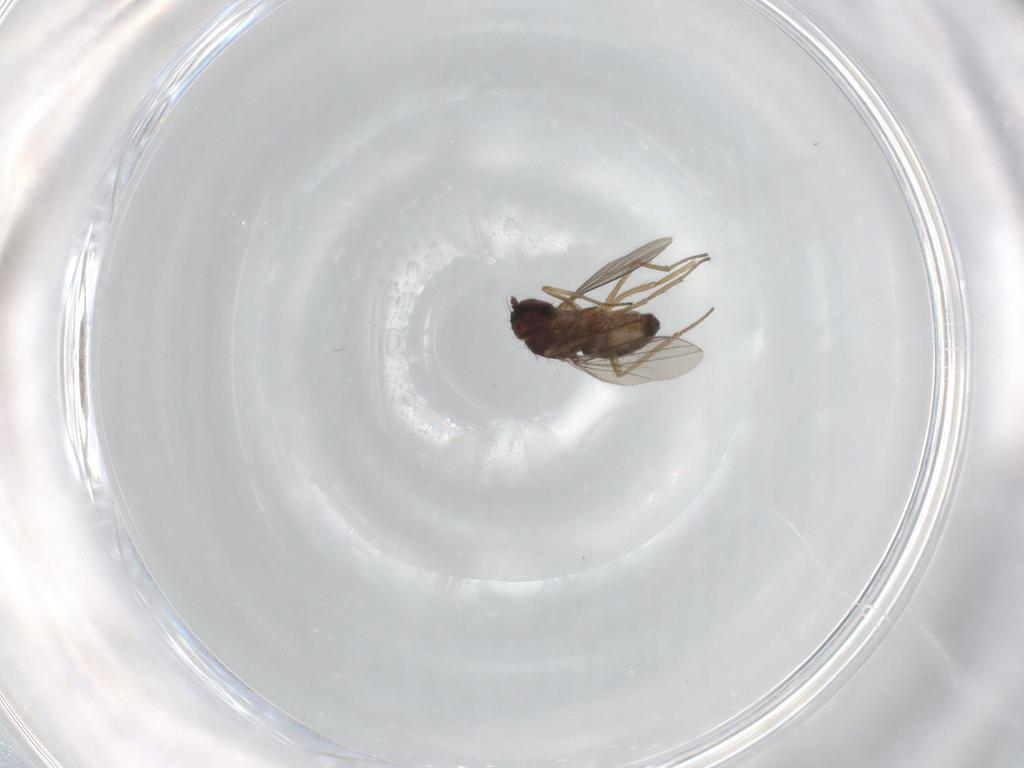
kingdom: Animalia
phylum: Arthropoda
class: Insecta
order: Diptera
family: Dolichopodidae
